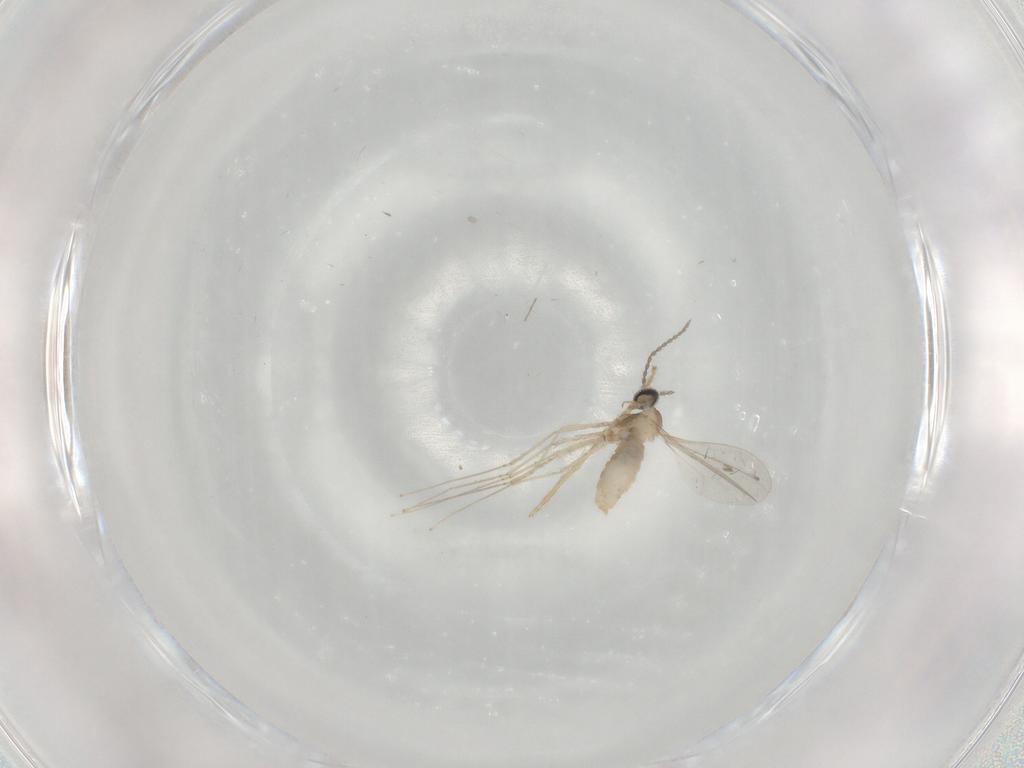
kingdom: Animalia
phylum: Arthropoda
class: Insecta
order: Diptera
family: Cecidomyiidae
